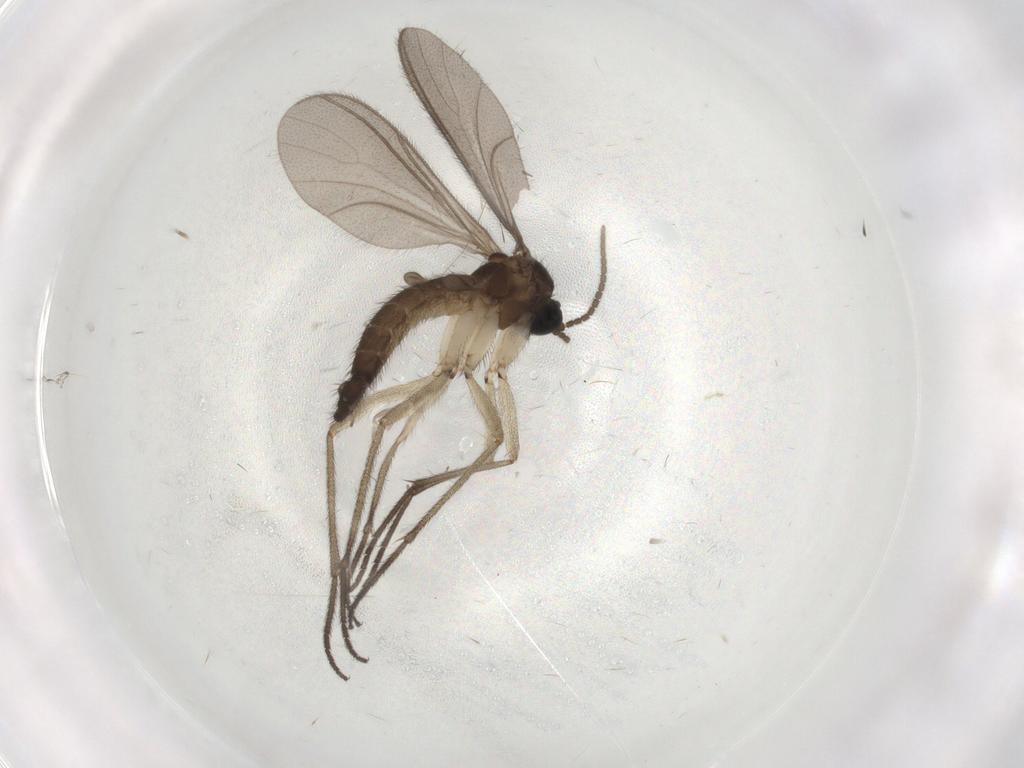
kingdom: Animalia
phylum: Arthropoda
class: Insecta
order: Diptera
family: Sciaridae
